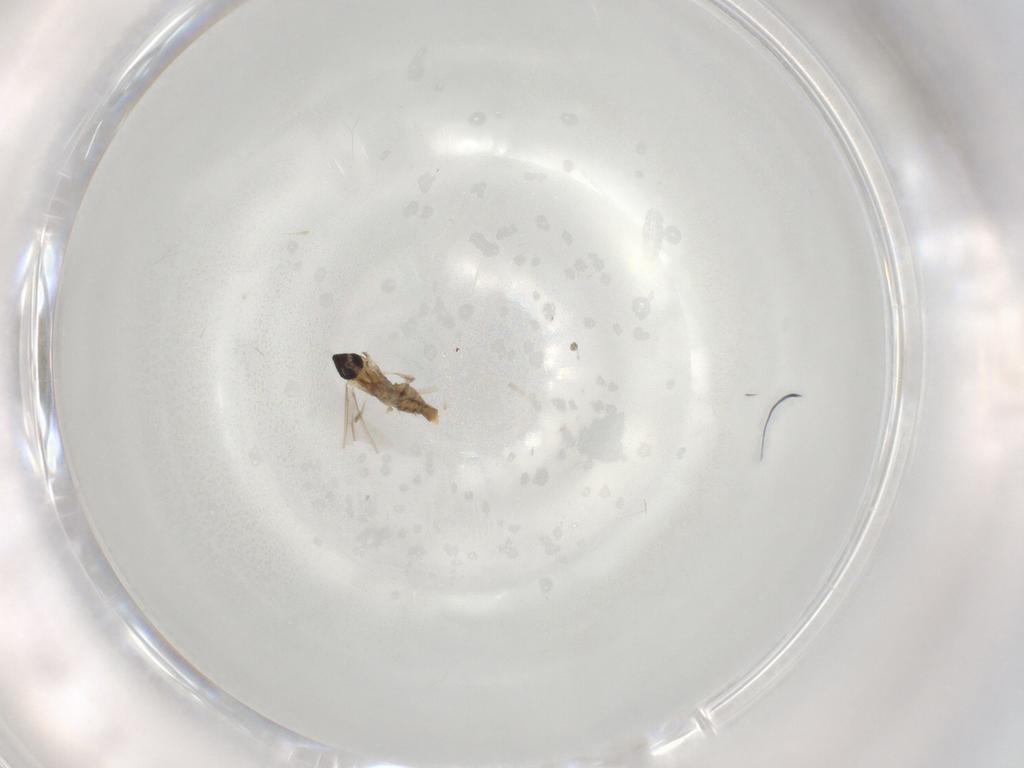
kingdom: Animalia
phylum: Arthropoda
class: Insecta
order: Diptera
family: Cecidomyiidae
